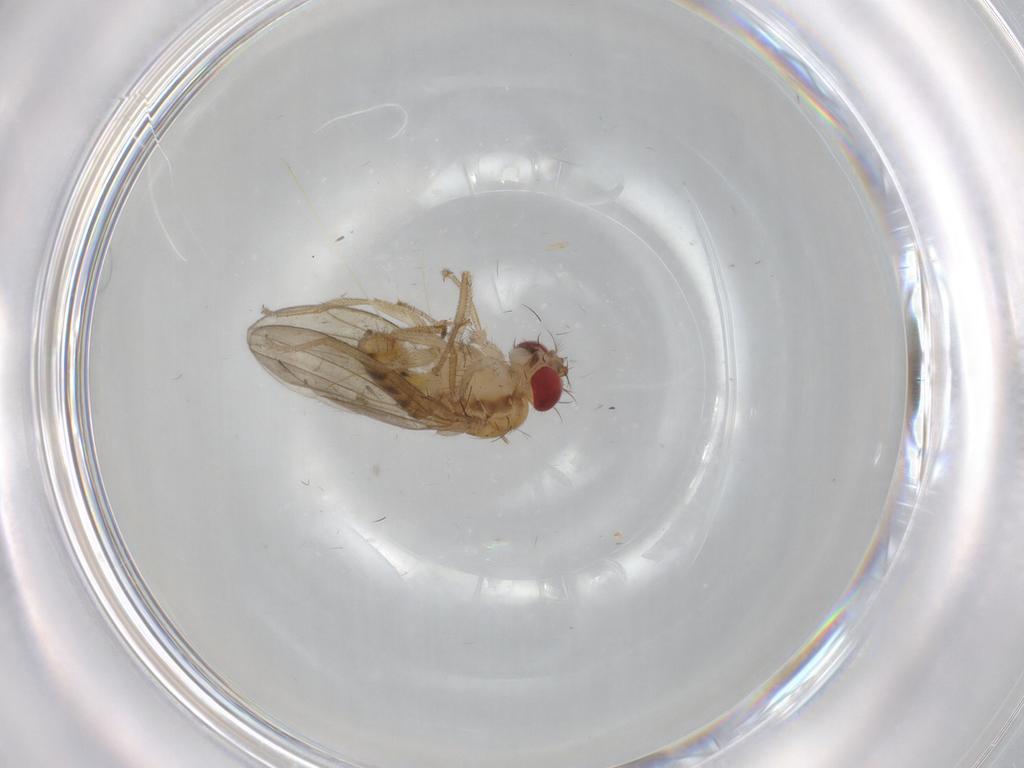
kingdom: Animalia
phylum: Arthropoda
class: Insecta
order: Diptera
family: Drosophilidae
